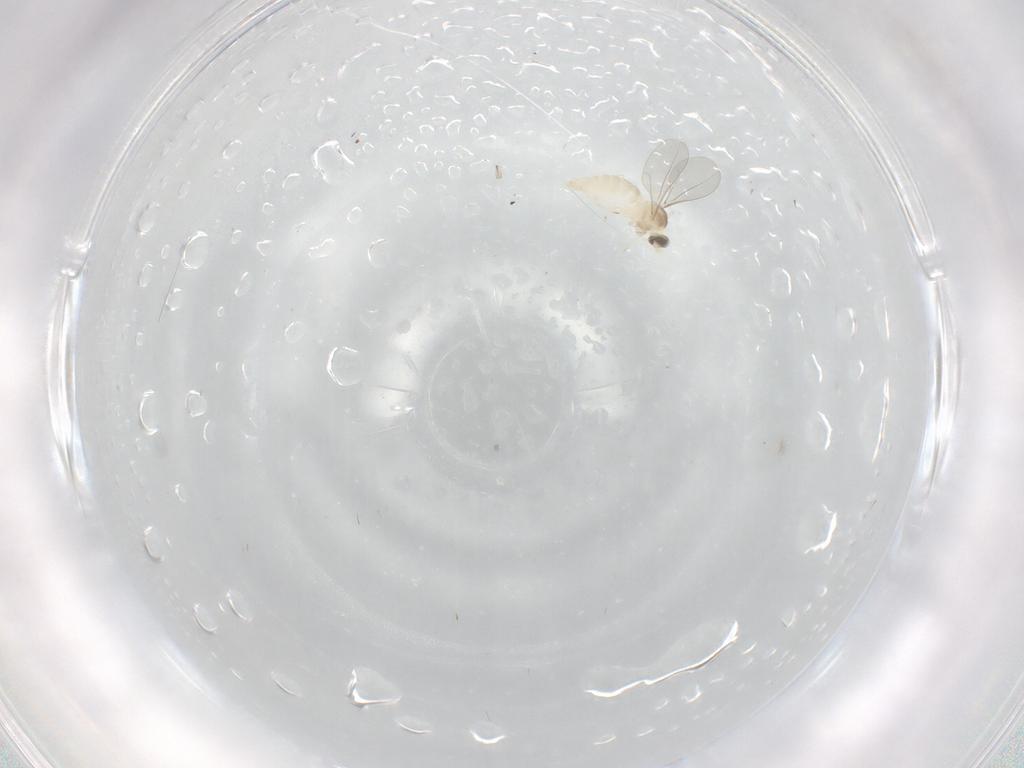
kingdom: Animalia
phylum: Arthropoda
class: Insecta
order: Diptera
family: Cecidomyiidae
